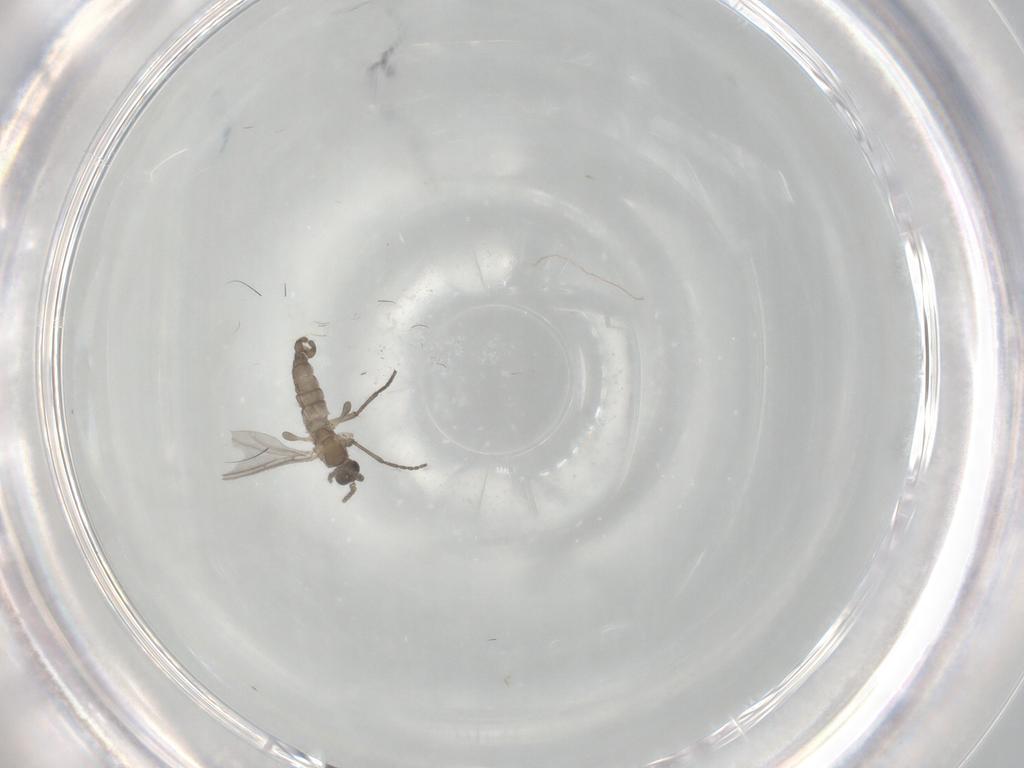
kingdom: Animalia
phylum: Arthropoda
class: Insecta
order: Diptera
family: Sciaridae
